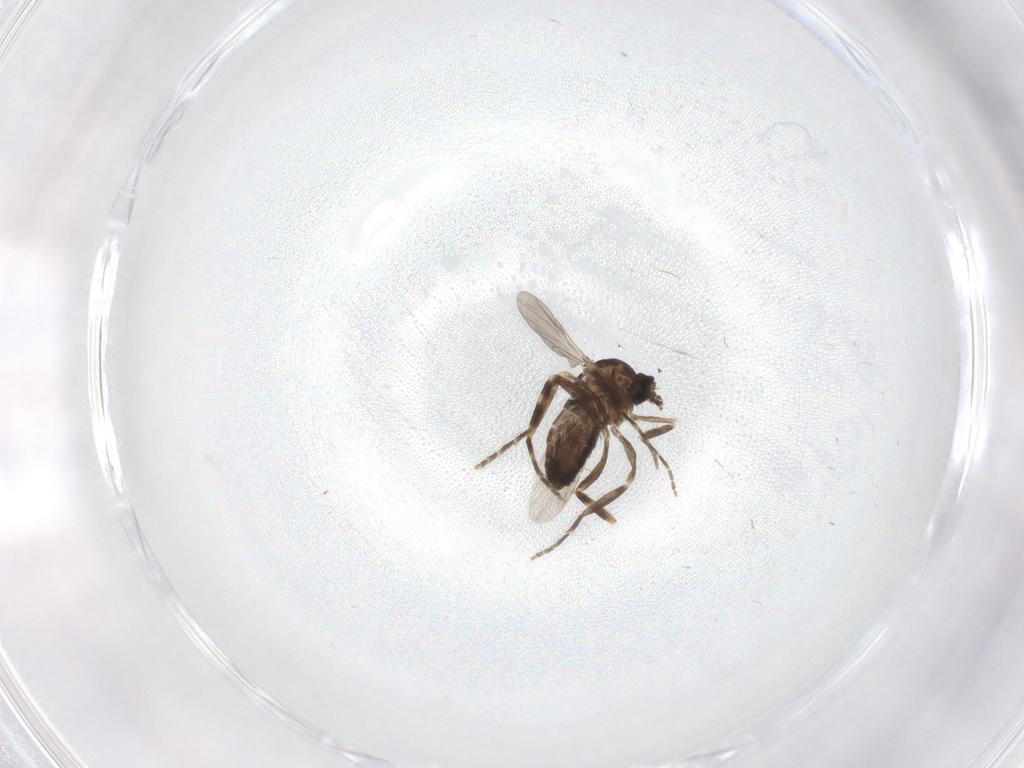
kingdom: Animalia
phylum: Arthropoda
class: Insecta
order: Diptera
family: Ceratopogonidae
